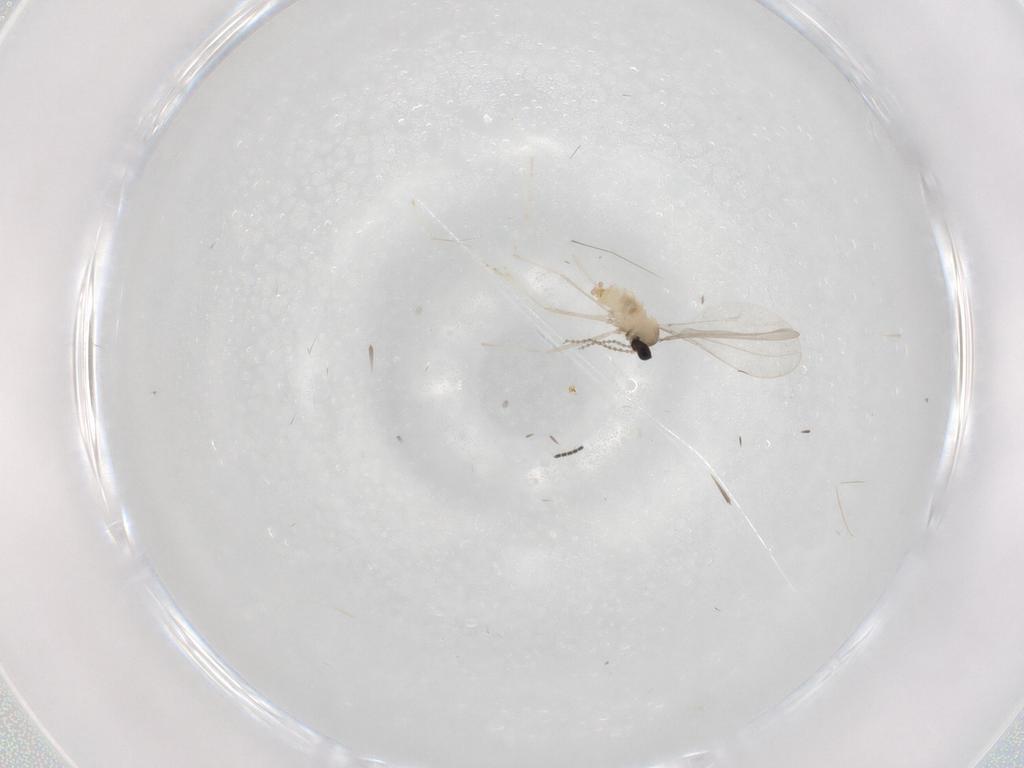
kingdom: Animalia
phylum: Arthropoda
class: Insecta
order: Diptera
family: Cecidomyiidae
